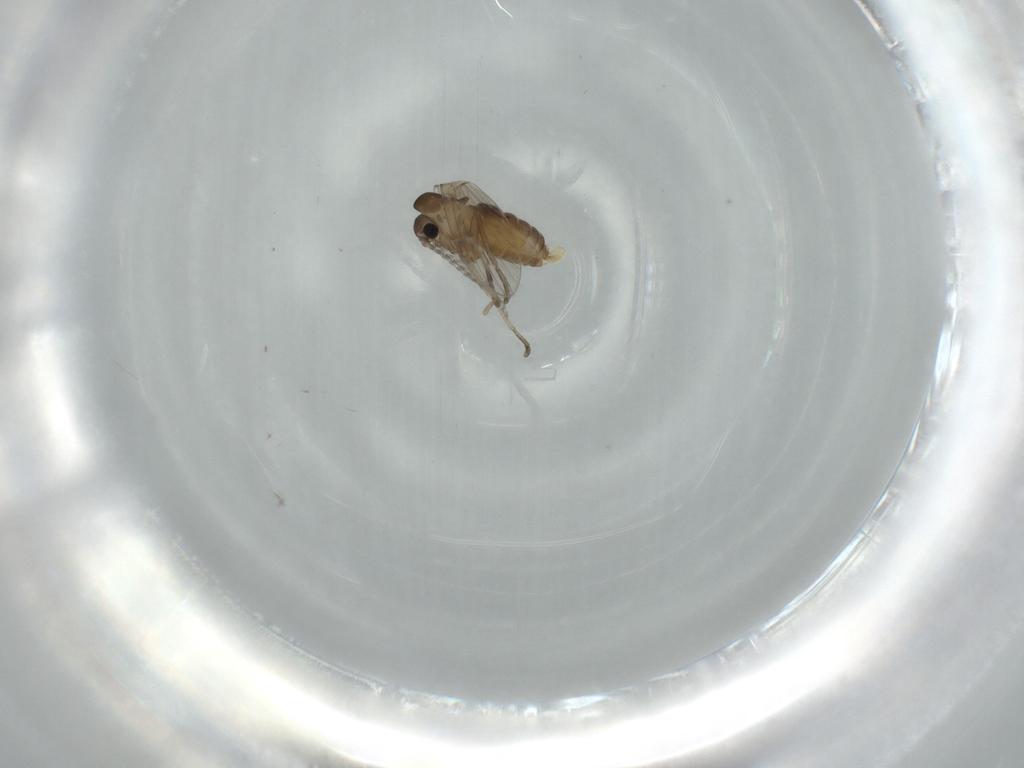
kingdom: Animalia
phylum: Arthropoda
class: Insecta
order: Diptera
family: Psychodidae
